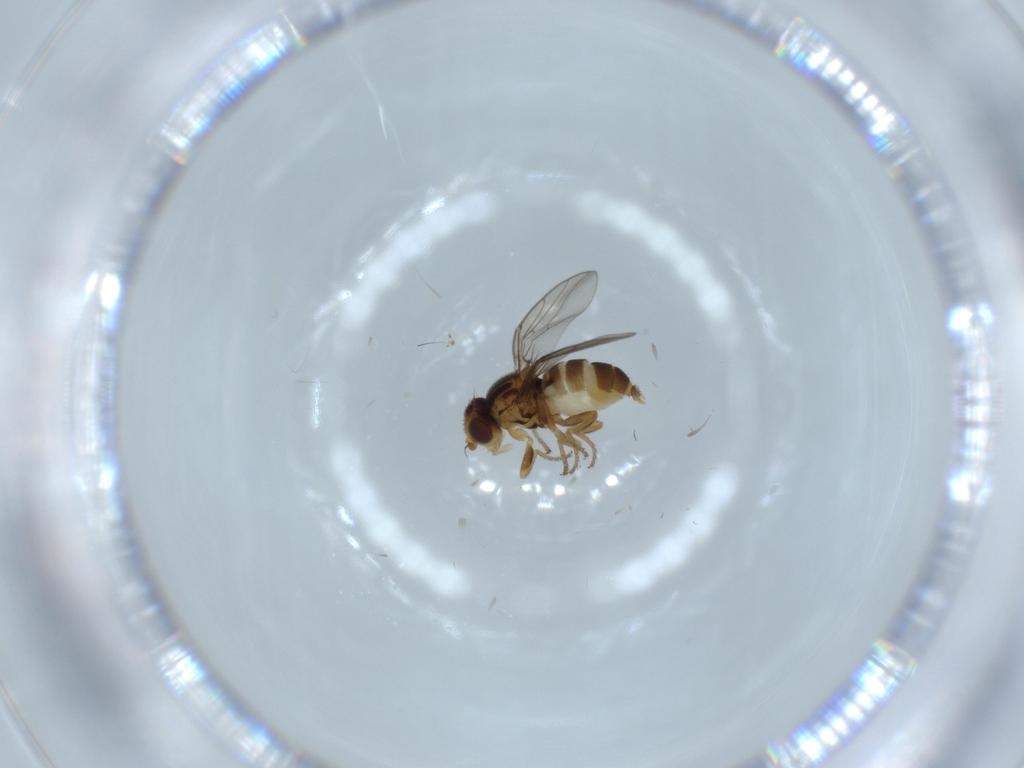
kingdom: Animalia
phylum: Arthropoda
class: Insecta
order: Diptera
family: Chloropidae
